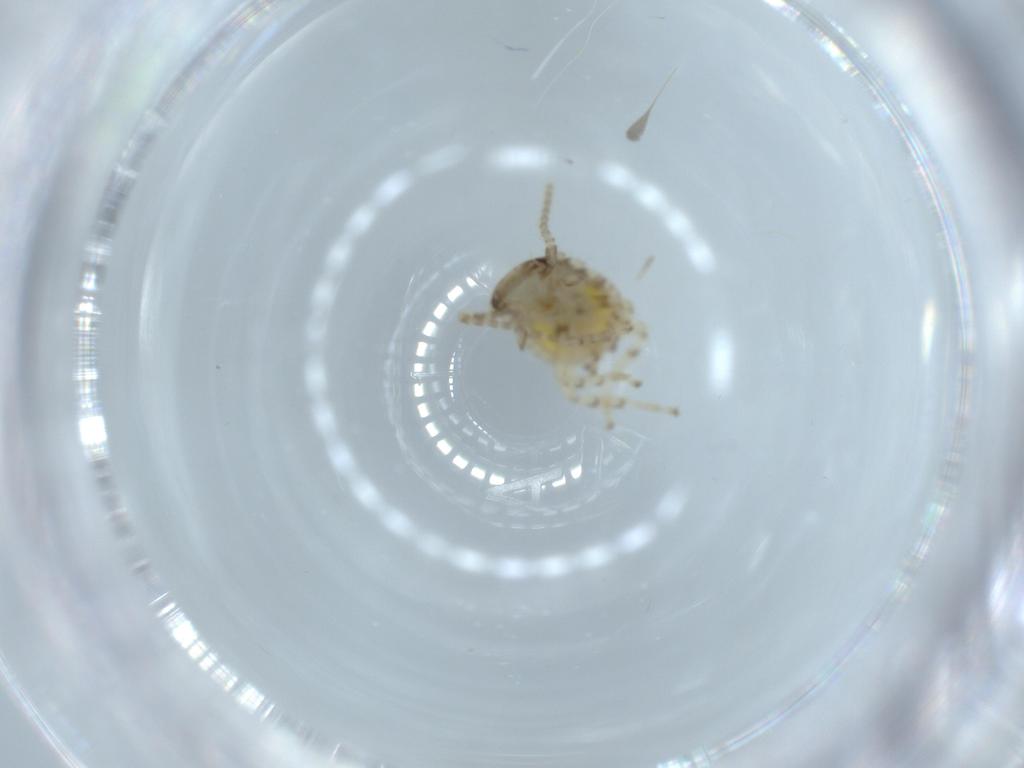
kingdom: Animalia
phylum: Arthropoda
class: Insecta
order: Blattodea
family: Ectobiidae
